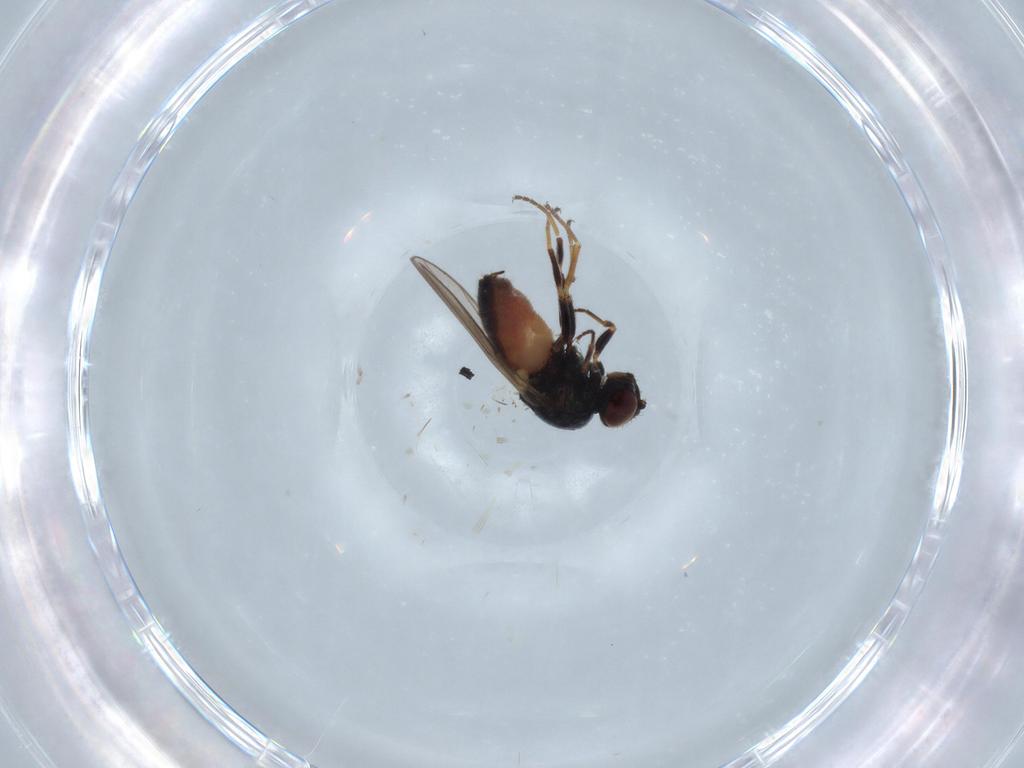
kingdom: Animalia
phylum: Arthropoda
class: Insecta
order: Diptera
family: Chloropidae
